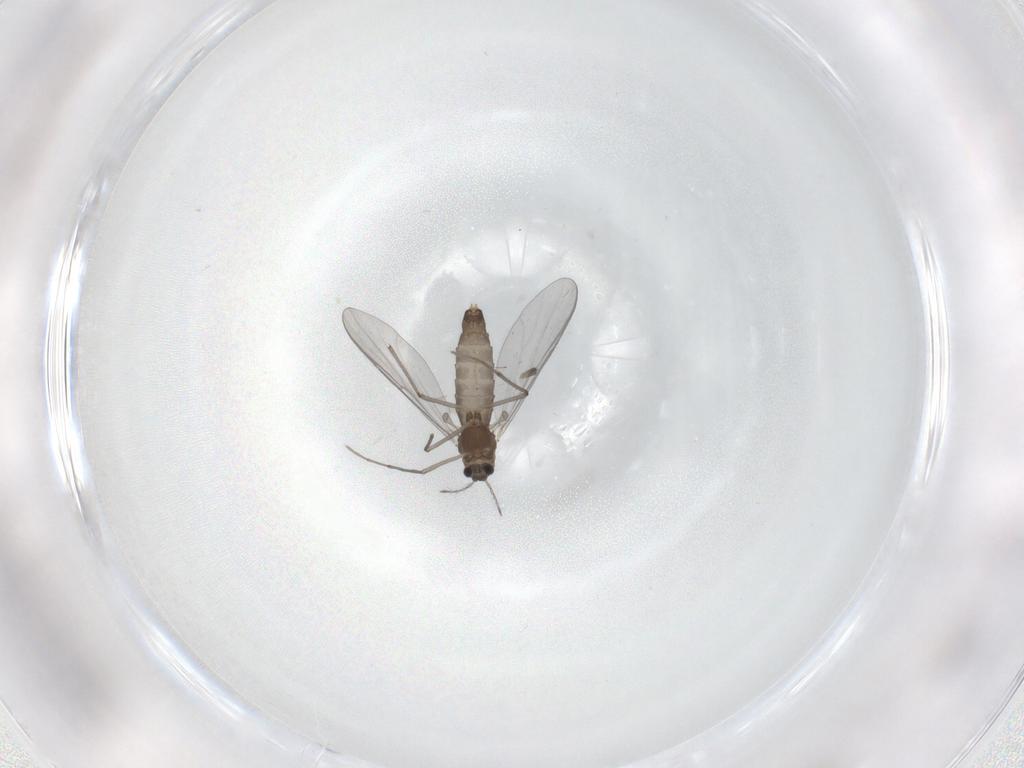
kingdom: Animalia
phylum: Arthropoda
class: Insecta
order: Diptera
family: Chironomidae
